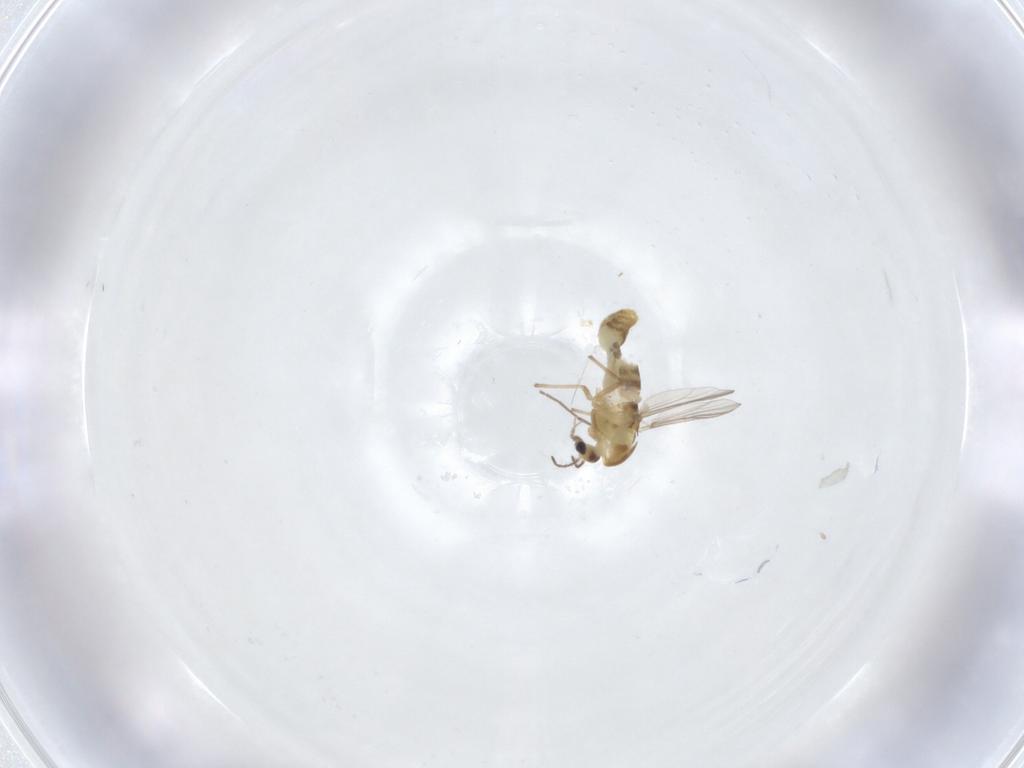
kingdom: Animalia
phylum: Arthropoda
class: Insecta
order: Diptera
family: Chironomidae
